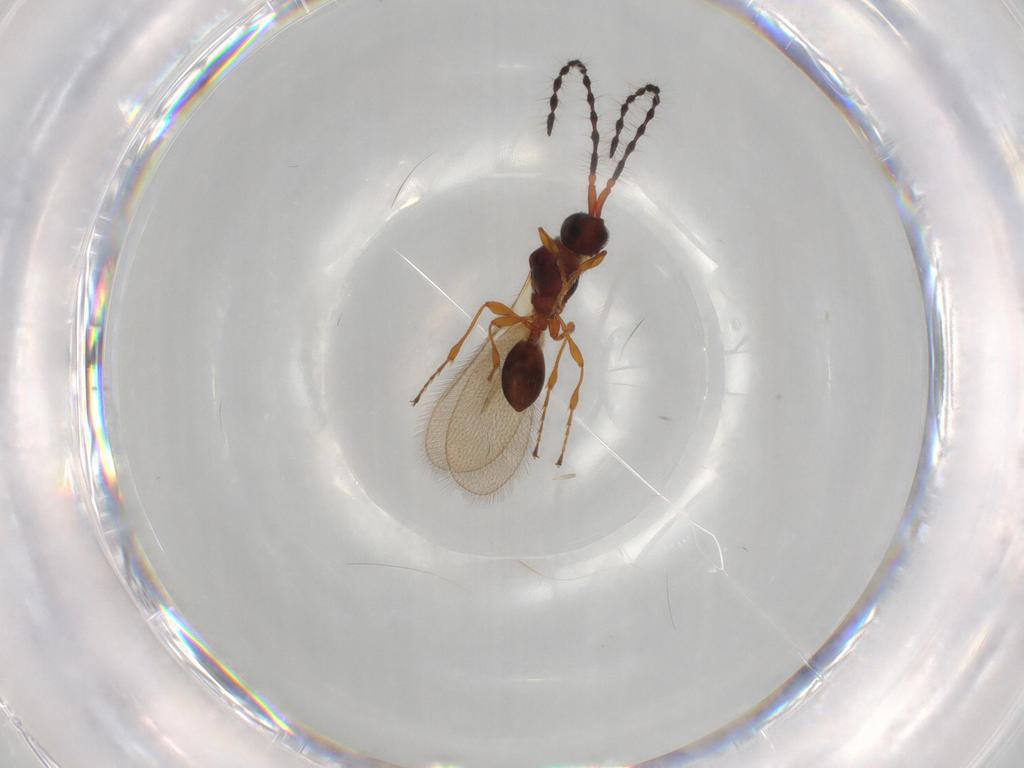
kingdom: Animalia
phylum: Arthropoda
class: Insecta
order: Hymenoptera
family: Diapriidae
